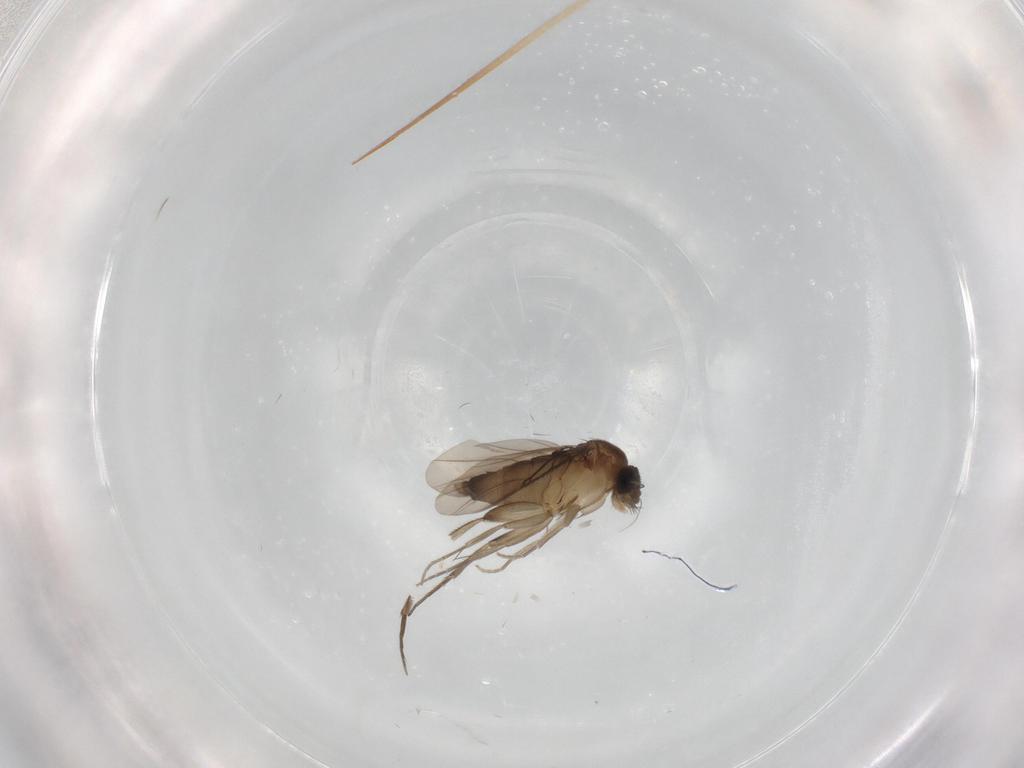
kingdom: Animalia
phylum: Arthropoda
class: Insecta
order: Diptera
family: Phoridae
